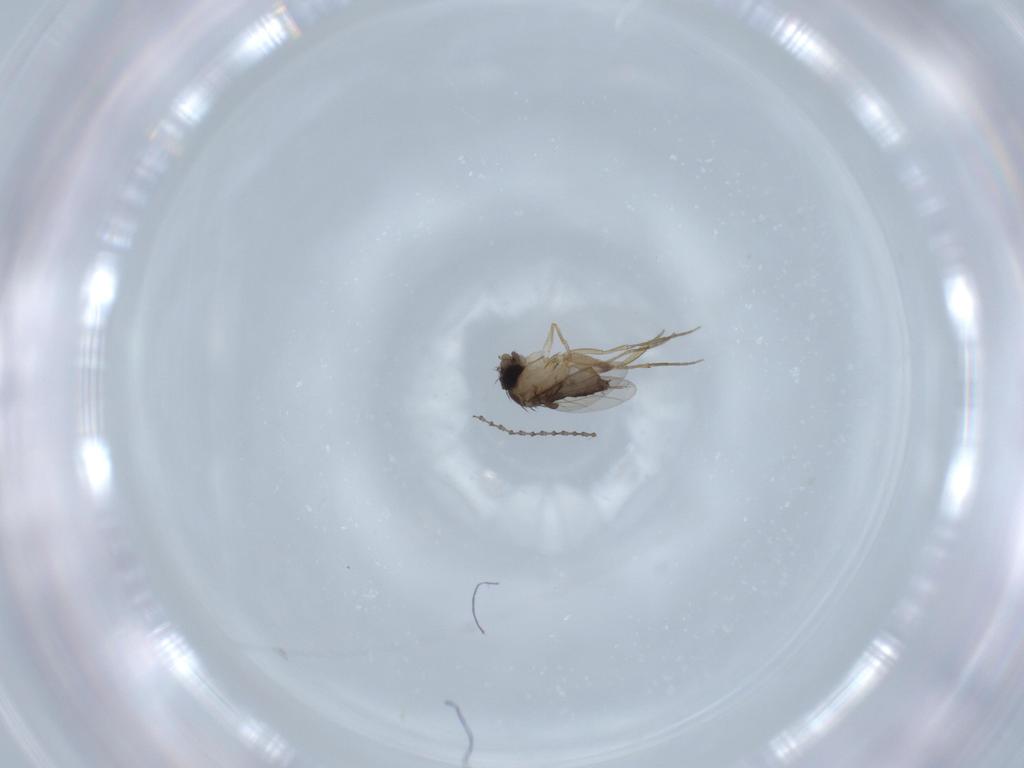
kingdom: Animalia
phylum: Arthropoda
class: Insecta
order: Diptera
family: Phoridae
